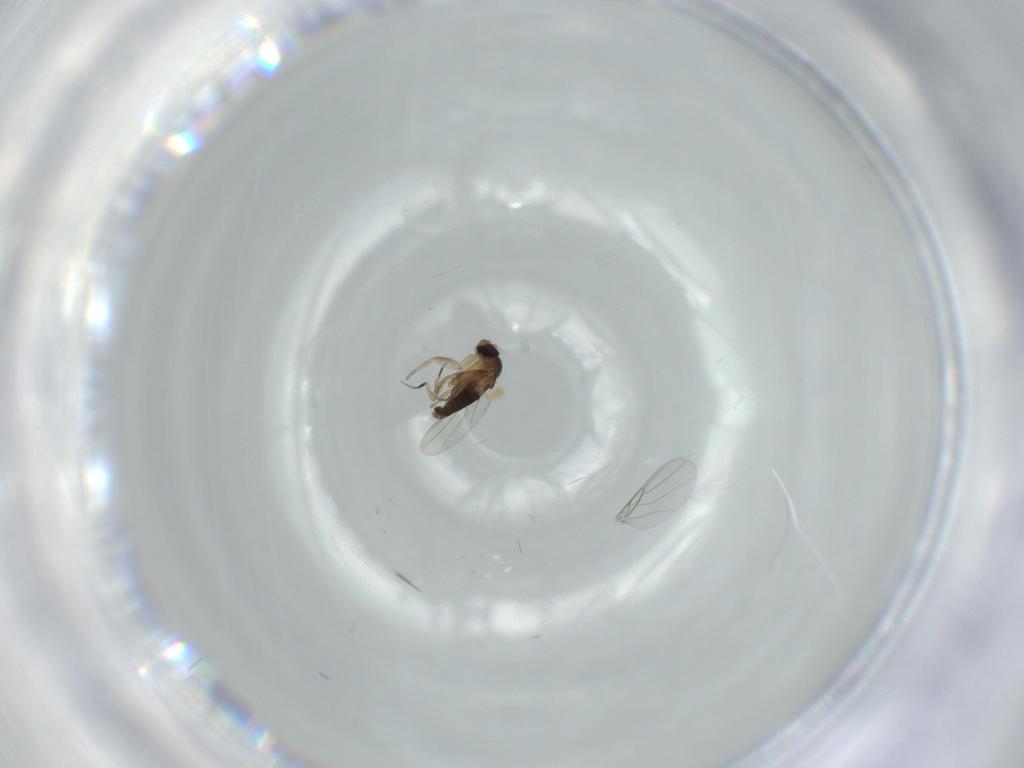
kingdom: Animalia
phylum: Arthropoda
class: Insecta
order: Diptera
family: Phoridae
